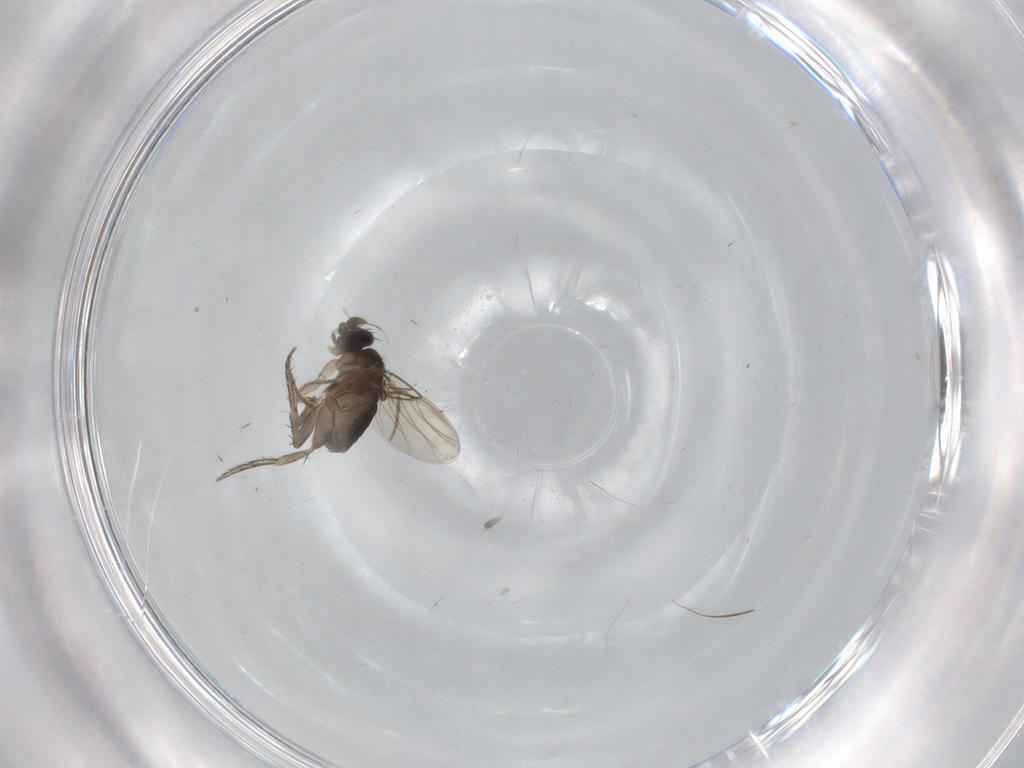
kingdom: Animalia
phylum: Arthropoda
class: Insecta
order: Diptera
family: Phoridae
